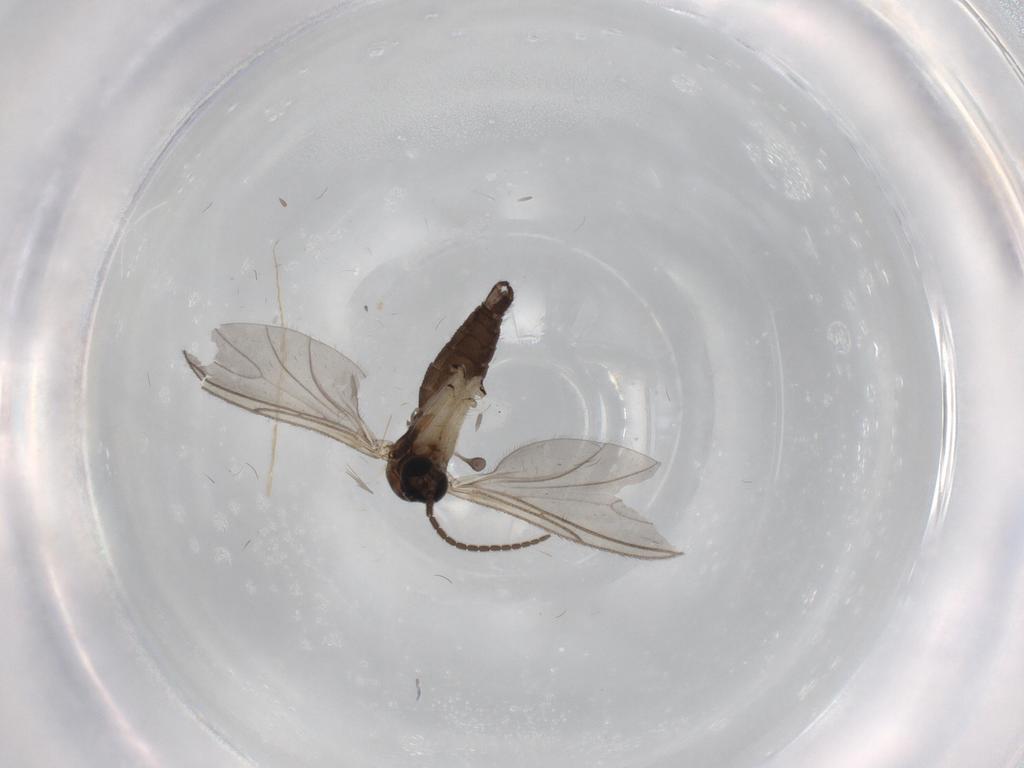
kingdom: Animalia
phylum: Arthropoda
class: Insecta
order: Diptera
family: Sciaridae
